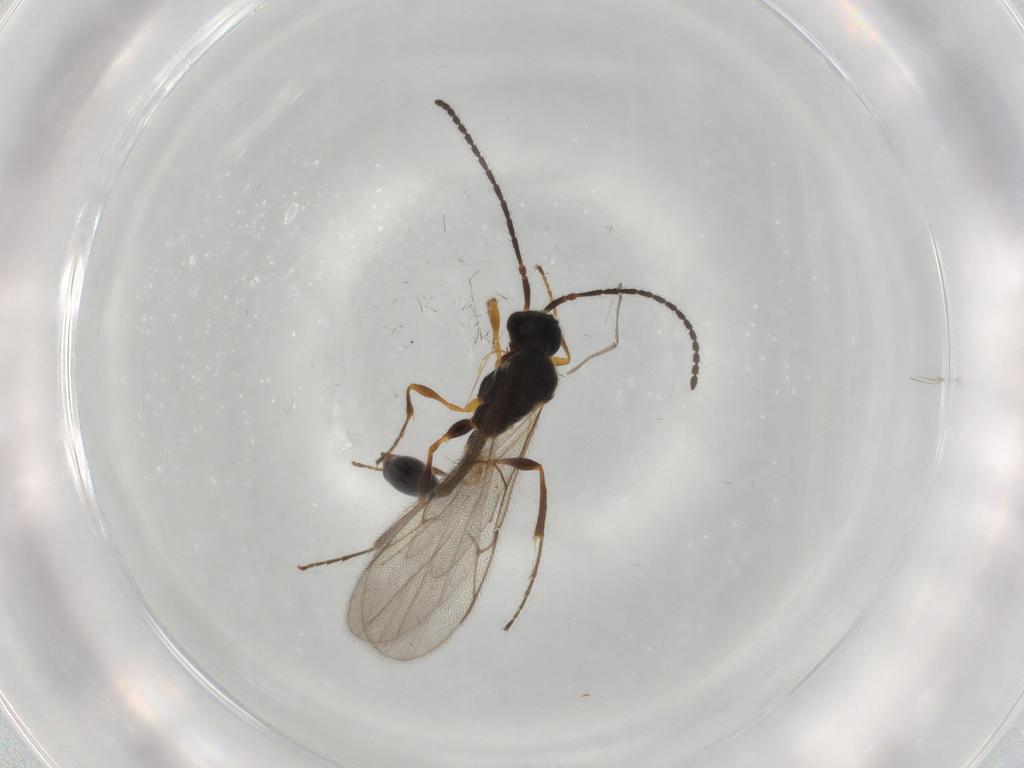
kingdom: Animalia
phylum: Arthropoda
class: Insecta
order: Hymenoptera
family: Diapriidae
